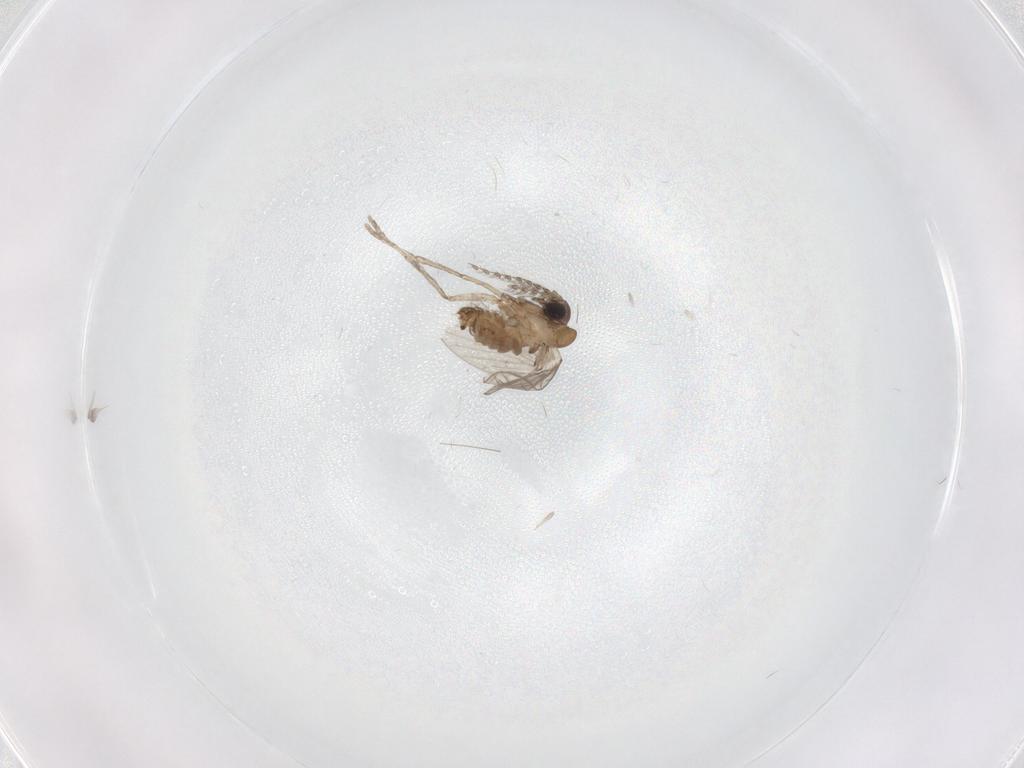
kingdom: Animalia
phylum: Arthropoda
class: Insecta
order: Diptera
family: Psychodidae
